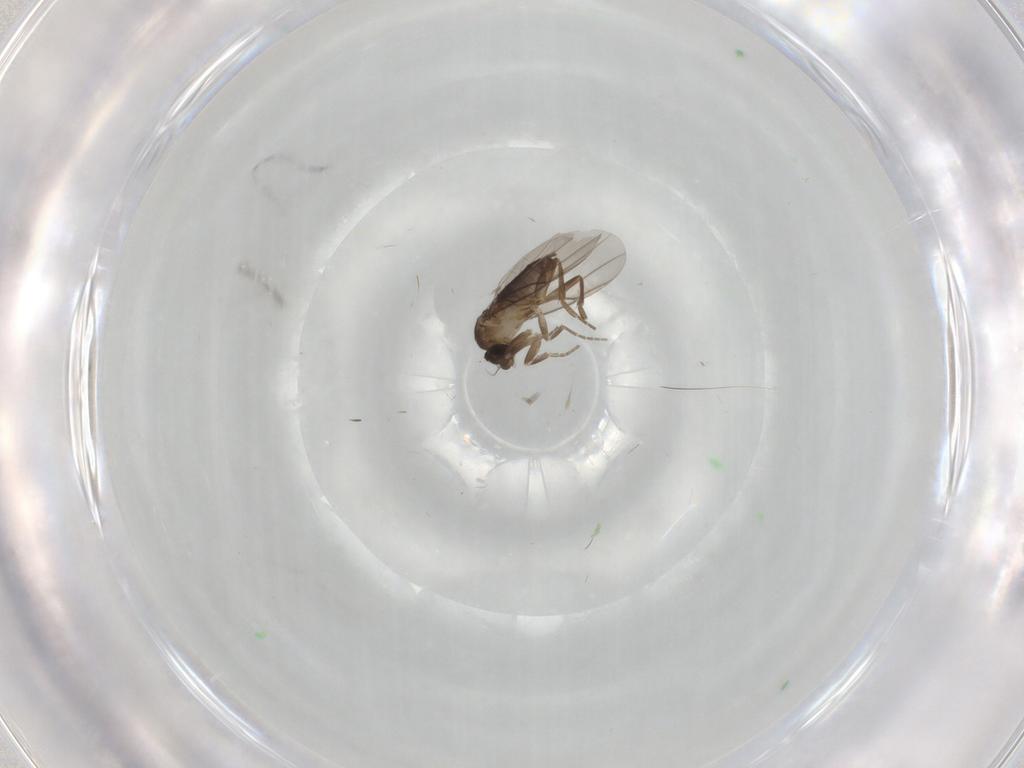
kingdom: Animalia
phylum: Arthropoda
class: Insecta
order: Diptera
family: Phoridae
